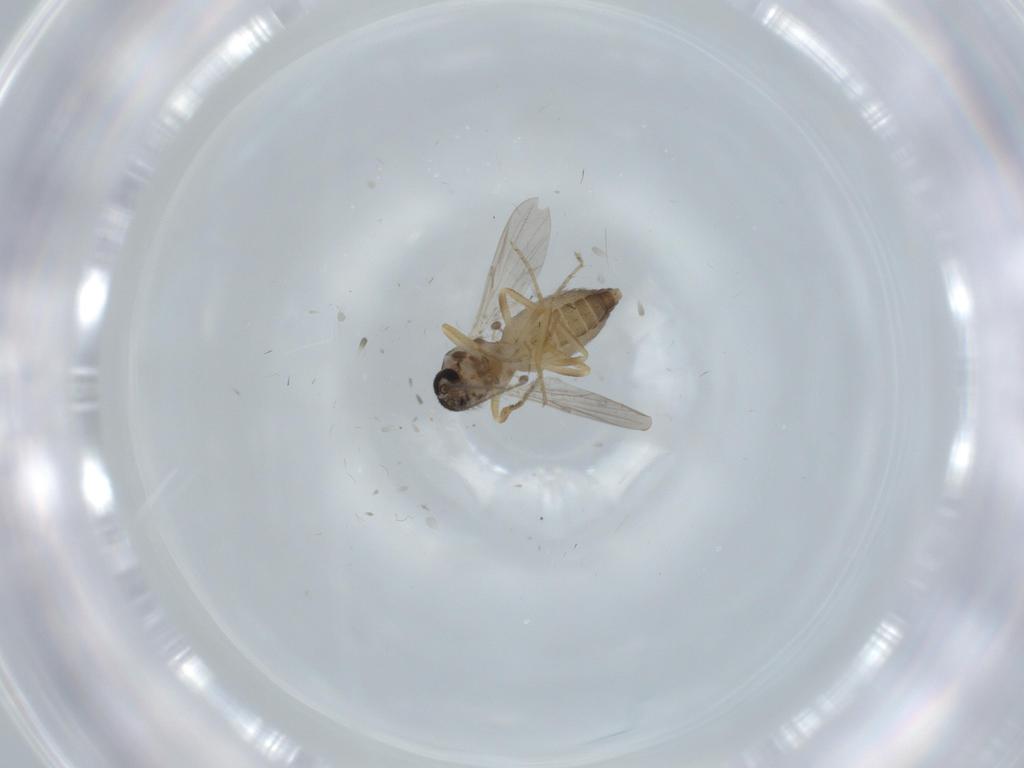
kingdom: Animalia
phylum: Arthropoda
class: Insecta
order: Diptera
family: Ceratopogonidae
